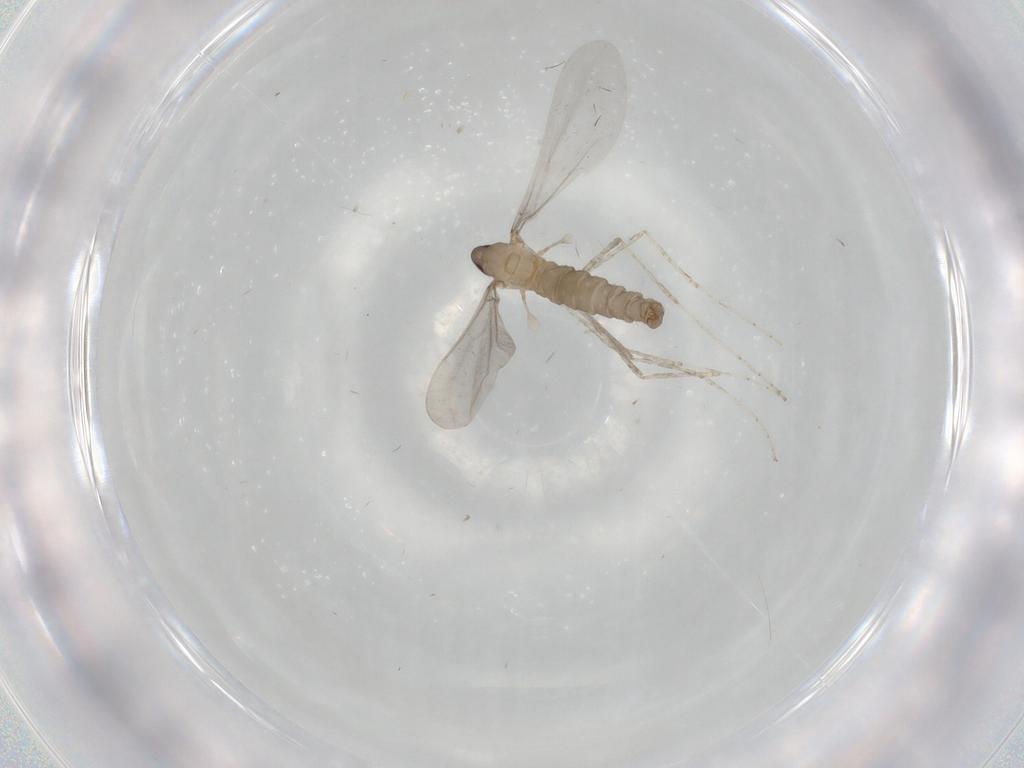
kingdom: Animalia
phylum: Arthropoda
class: Insecta
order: Diptera
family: Cecidomyiidae
